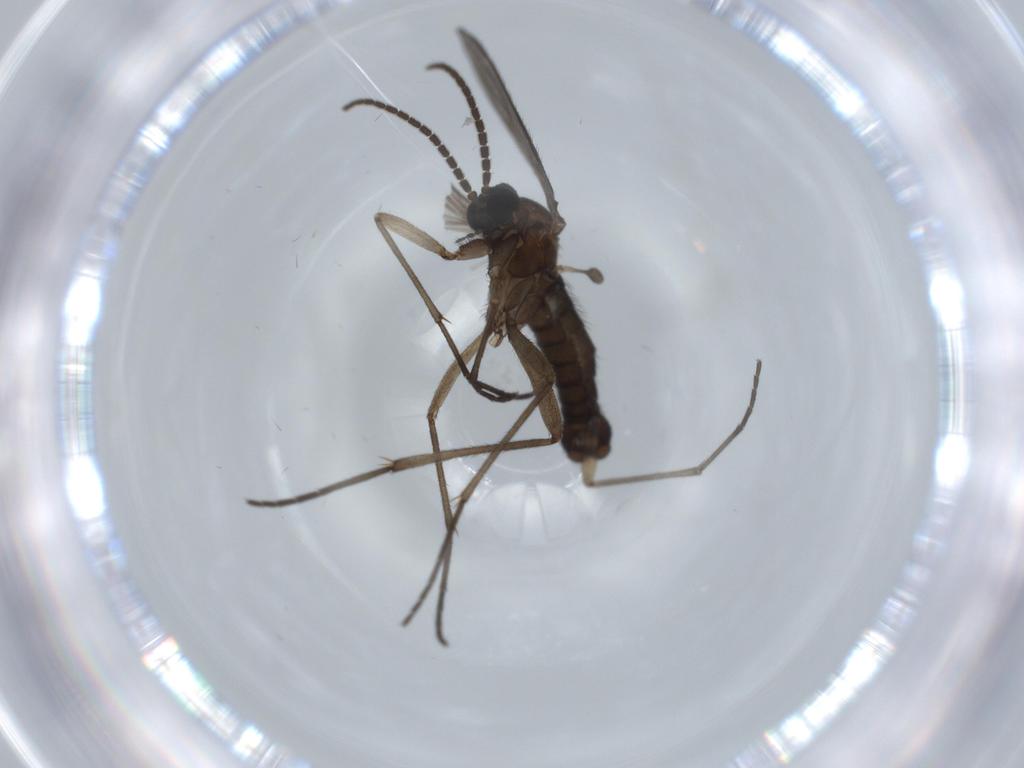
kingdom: Animalia
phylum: Arthropoda
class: Insecta
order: Diptera
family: Sciaridae
